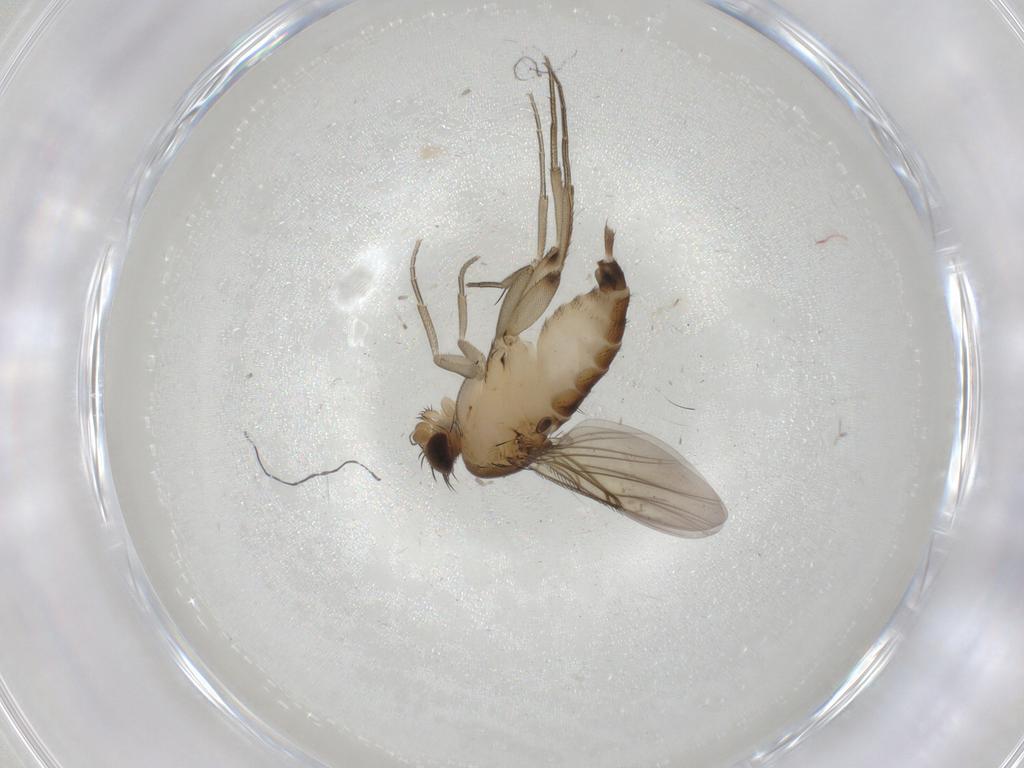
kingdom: Animalia
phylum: Arthropoda
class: Insecta
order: Diptera
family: Phoridae
